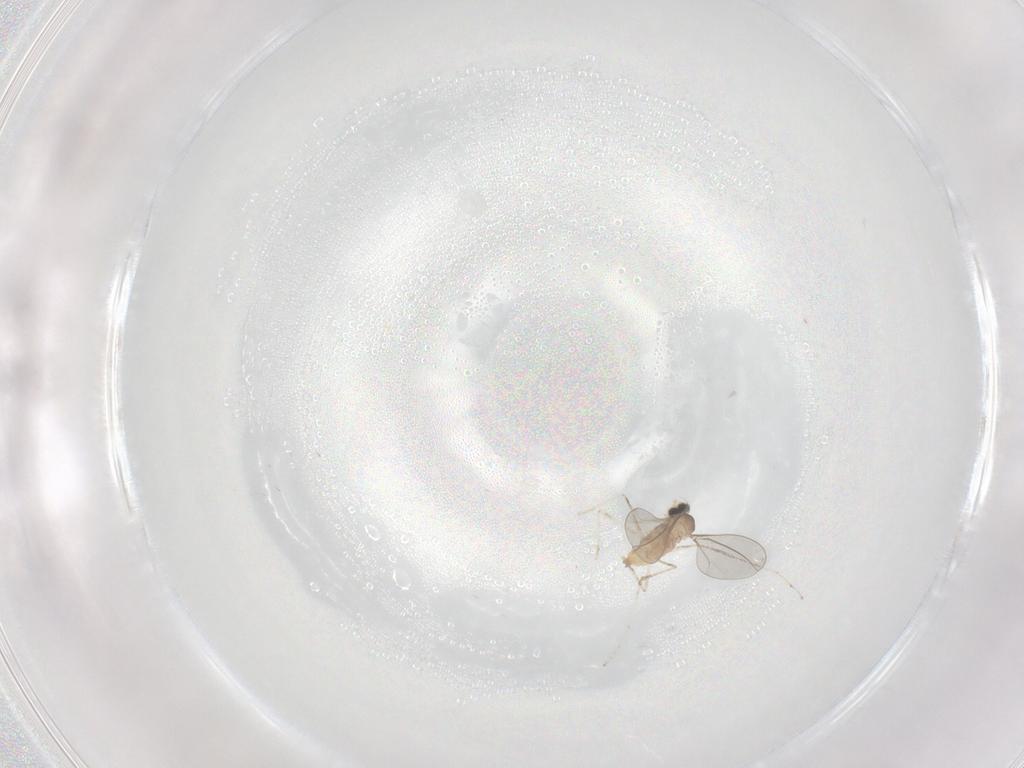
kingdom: Animalia
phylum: Arthropoda
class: Insecta
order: Diptera
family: Cecidomyiidae
